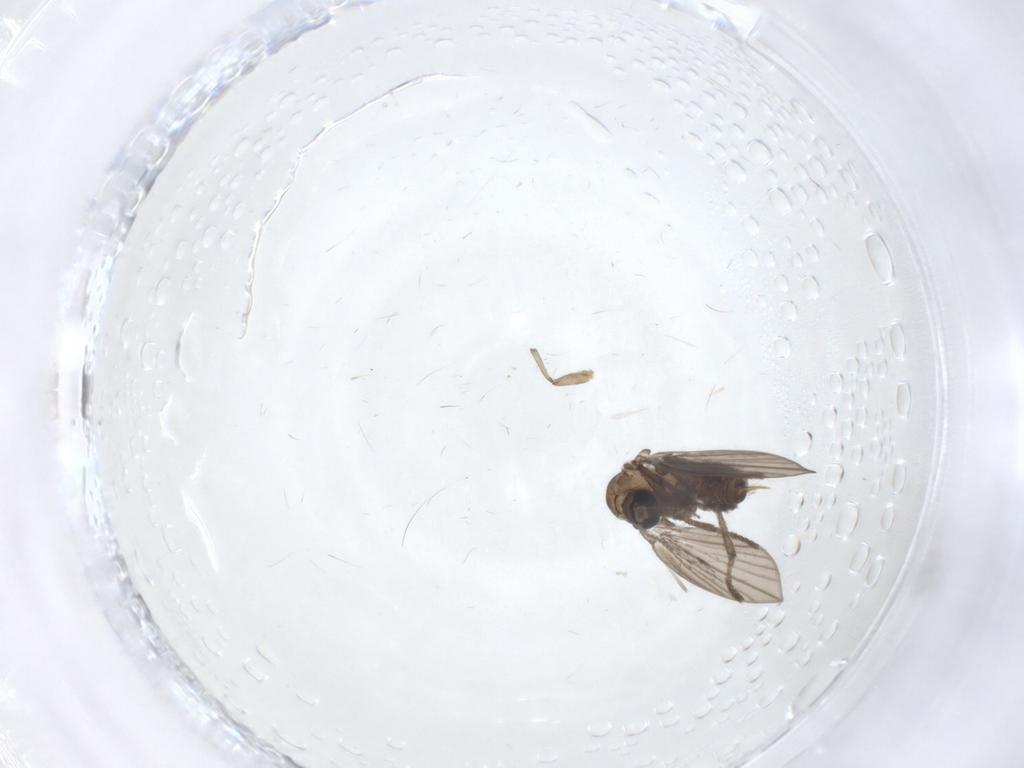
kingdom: Animalia
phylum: Arthropoda
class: Insecta
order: Diptera
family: Psychodidae
